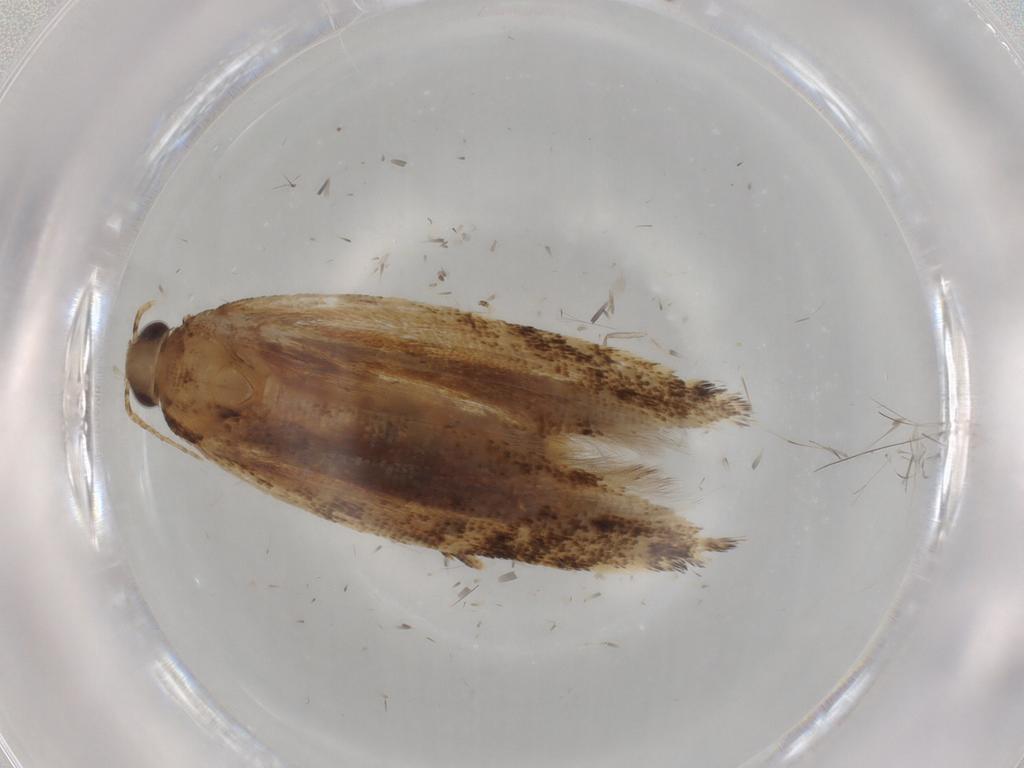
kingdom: Animalia
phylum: Arthropoda
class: Insecta
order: Lepidoptera
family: Gelechiidae
